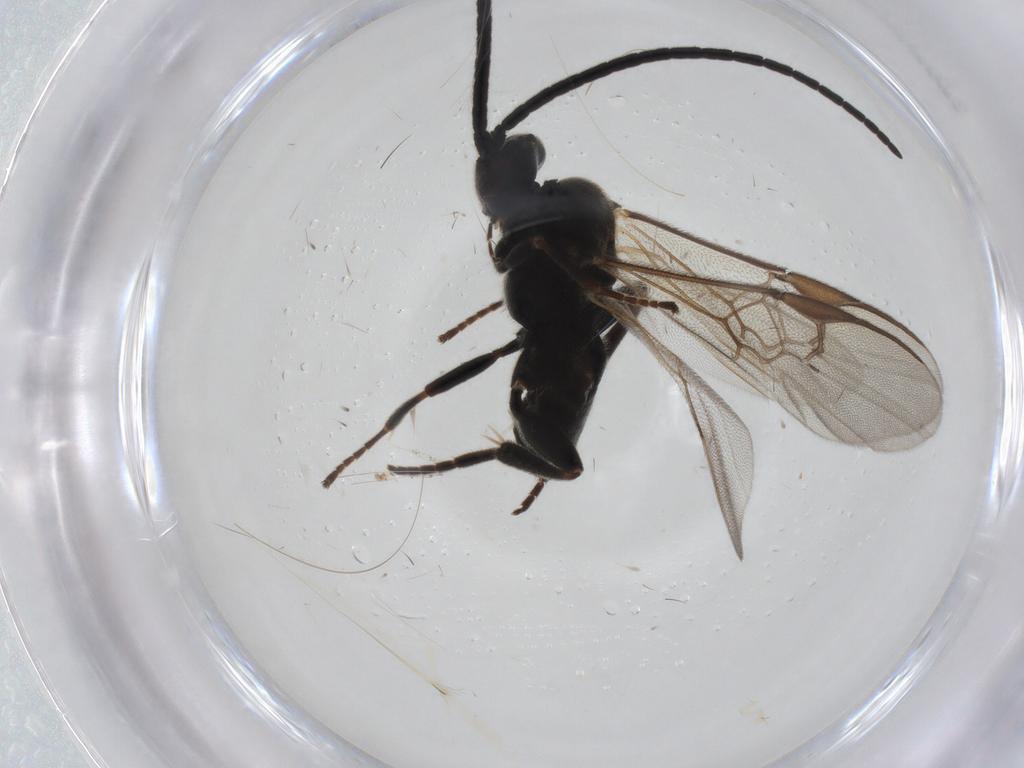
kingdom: Animalia
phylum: Arthropoda
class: Insecta
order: Hymenoptera
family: Braconidae
